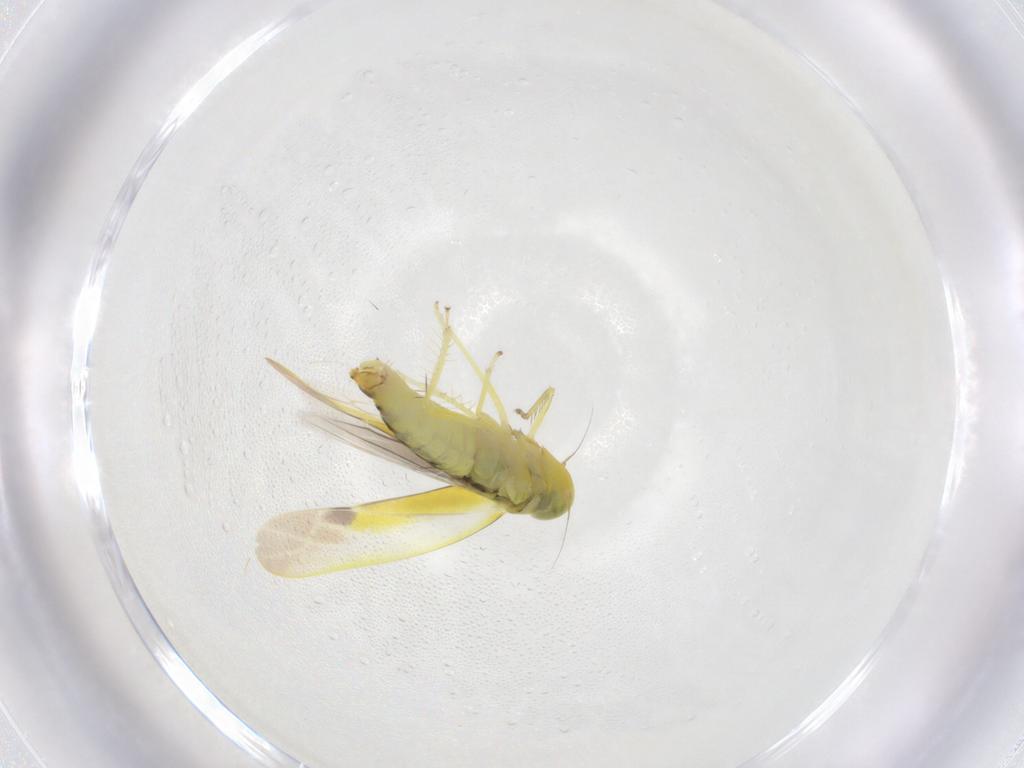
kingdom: Animalia
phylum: Arthropoda
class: Insecta
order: Hemiptera
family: Cicadellidae
